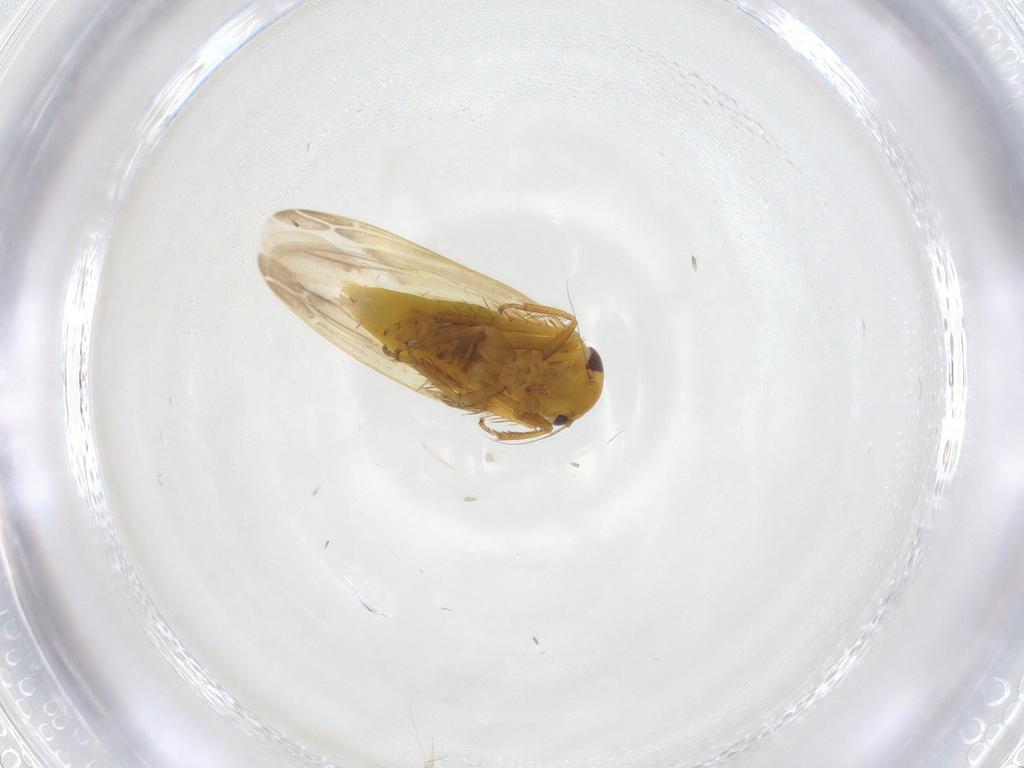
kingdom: Animalia
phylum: Arthropoda
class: Insecta
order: Hemiptera
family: Cicadellidae
